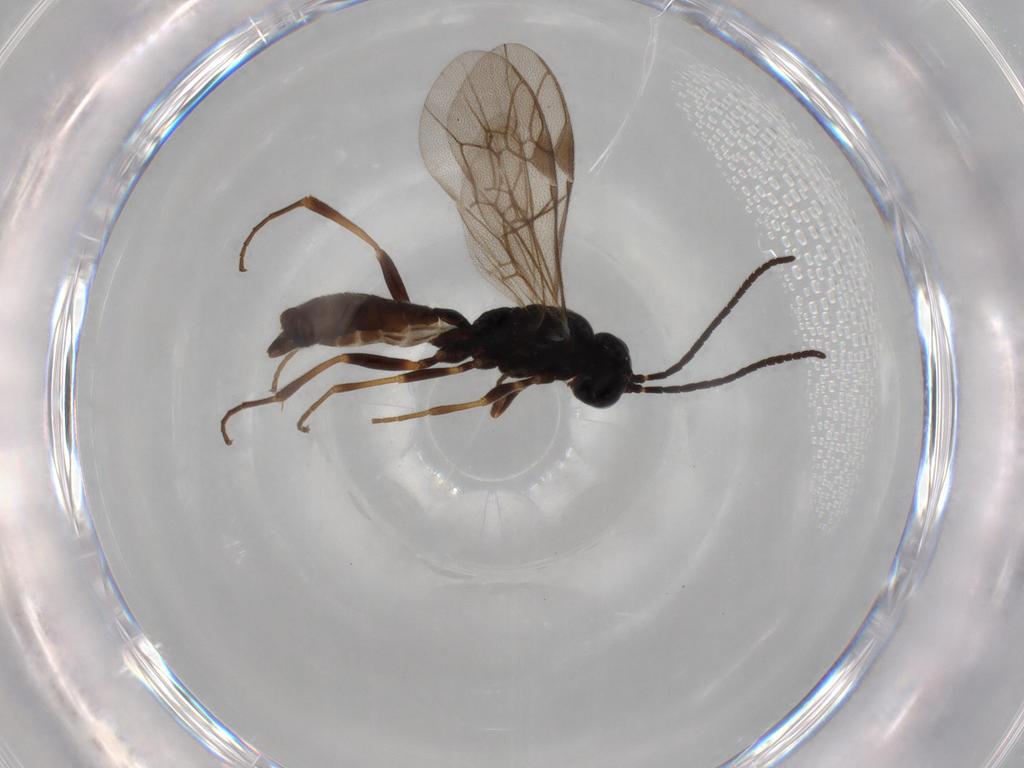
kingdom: Animalia
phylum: Arthropoda
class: Insecta
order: Hymenoptera
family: Ichneumonidae
